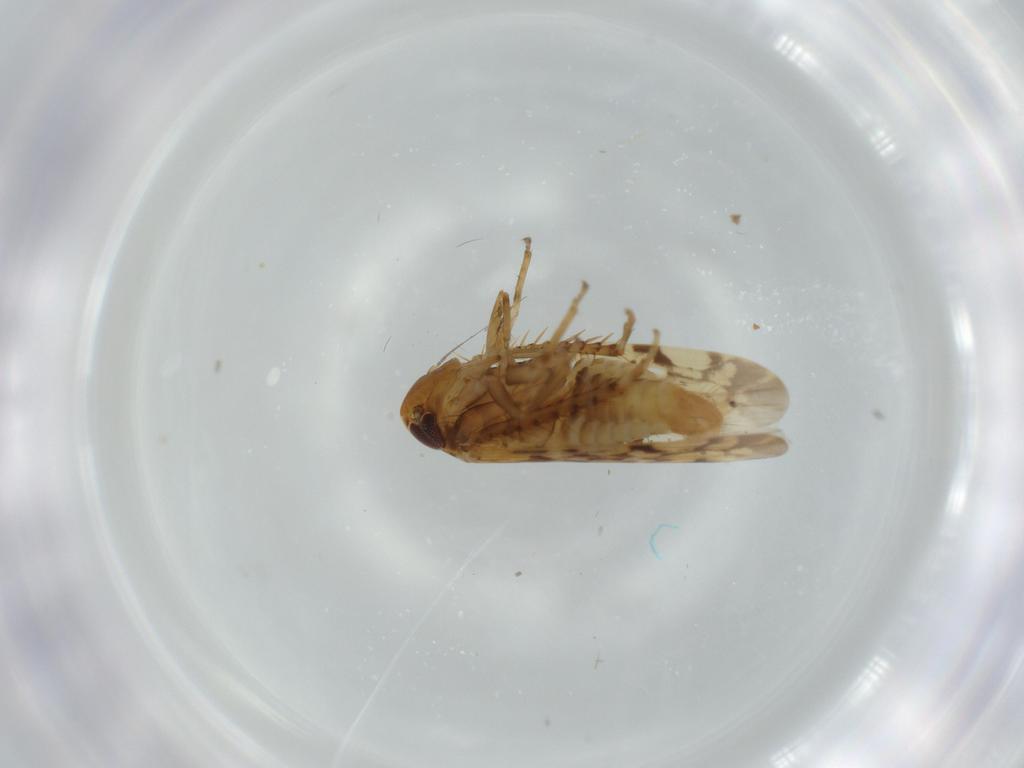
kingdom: Animalia
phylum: Arthropoda
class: Insecta
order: Hemiptera
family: Cicadellidae
